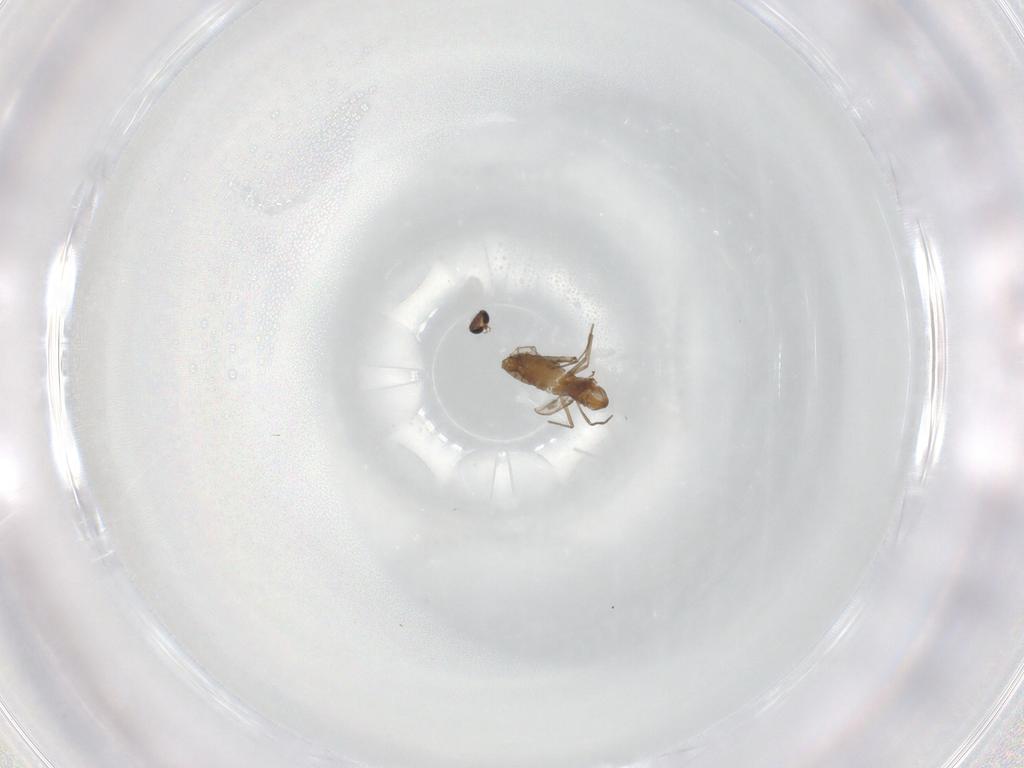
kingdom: Animalia
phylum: Arthropoda
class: Insecta
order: Diptera
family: Chironomidae
